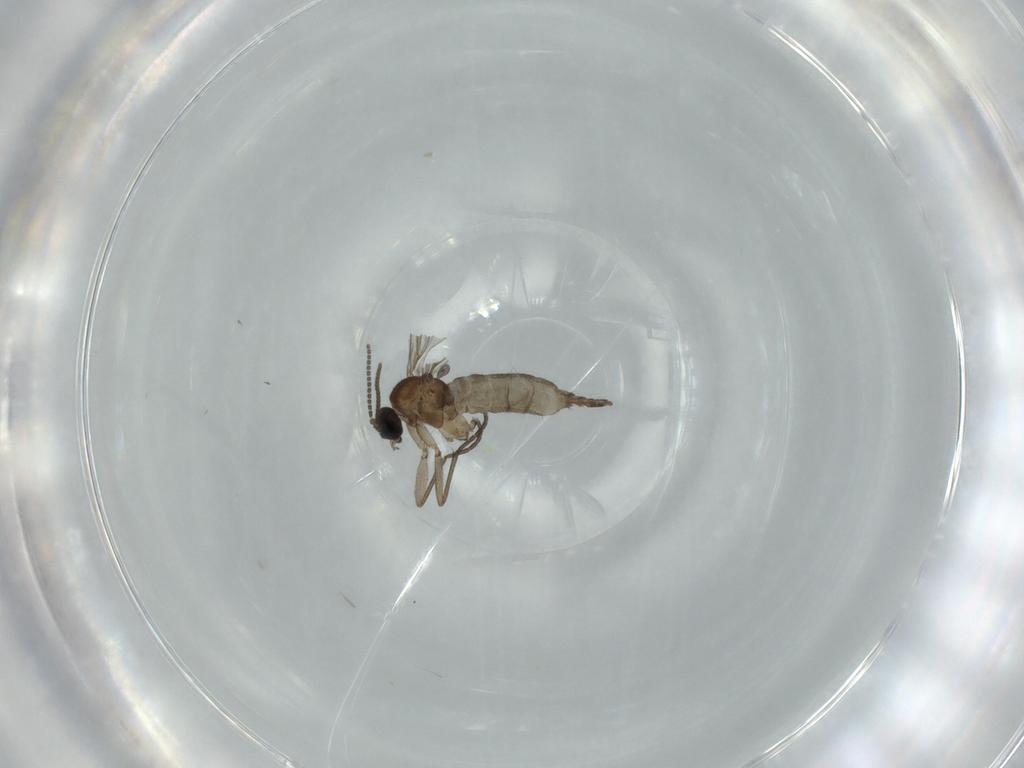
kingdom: Animalia
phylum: Arthropoda
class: Insecta
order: Diptera
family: Sciaridae
